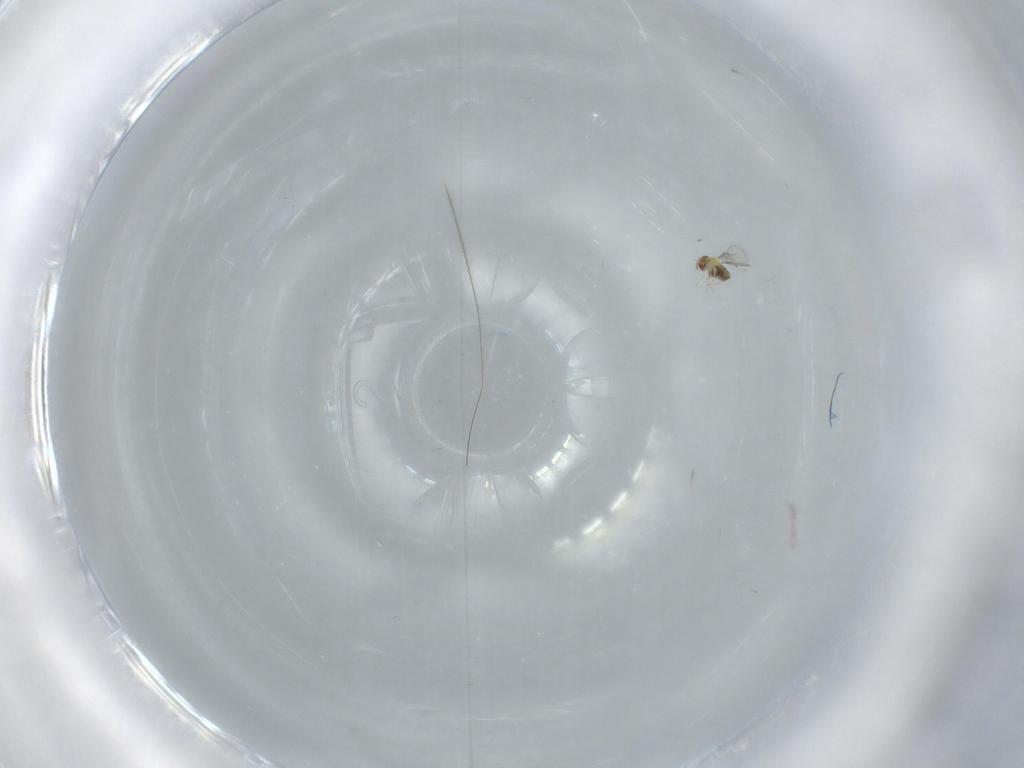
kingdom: Animalia
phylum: Arthropoda
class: Insecta
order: Hymenoptera
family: Trichogrammatidae
